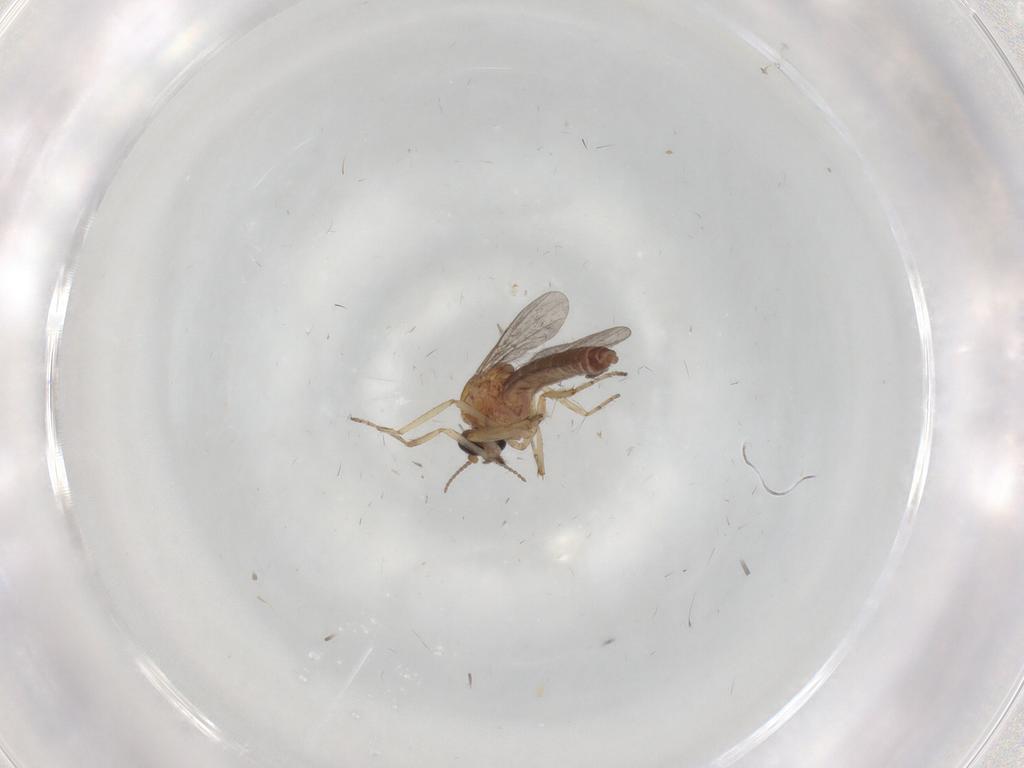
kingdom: Animalia
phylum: Arthropoda
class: Insecta
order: Diptera
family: Ceratopogonidae
